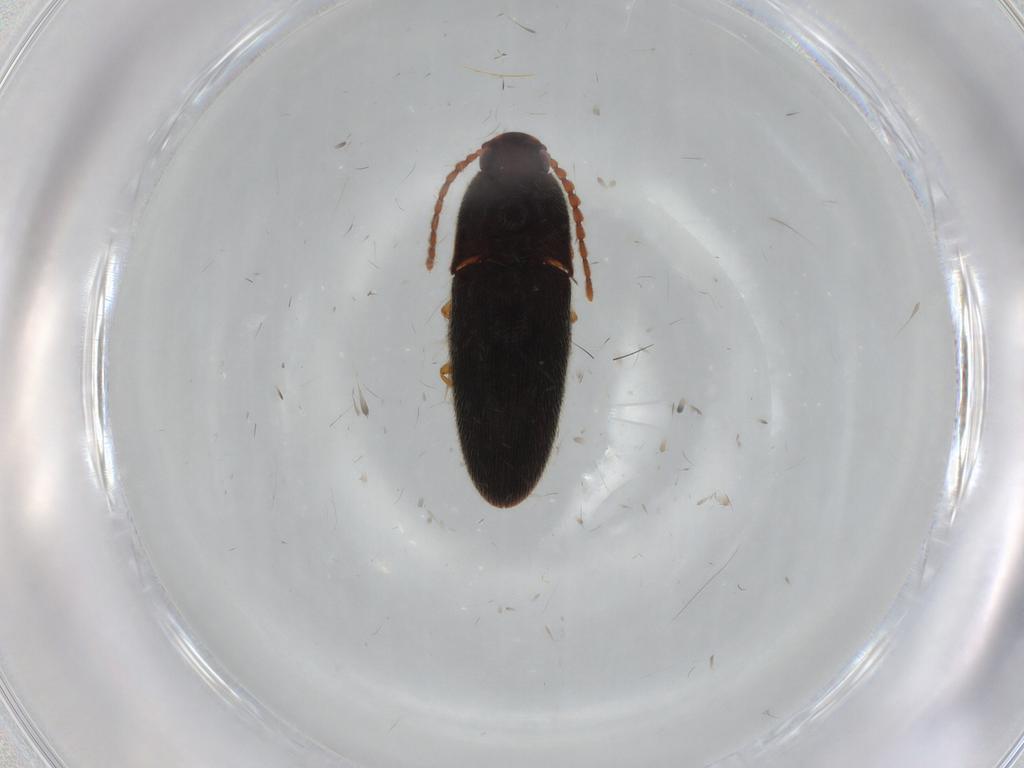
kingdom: Animalia
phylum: Arthropoda
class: Insecta
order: Coleoptera
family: Elateridae
